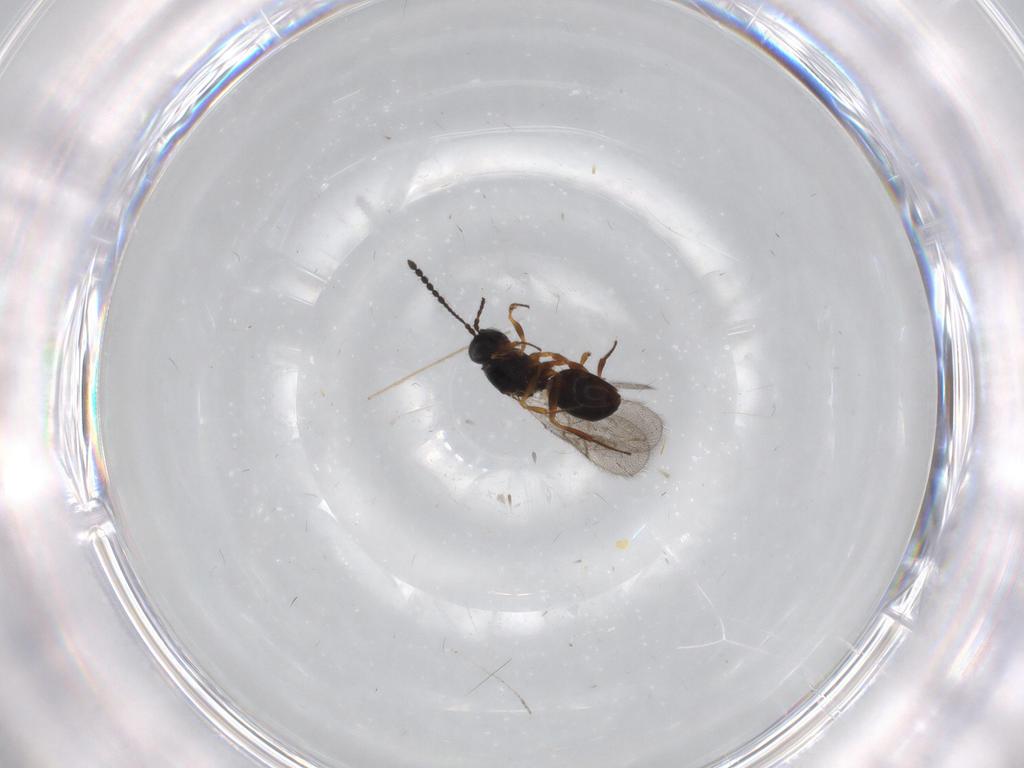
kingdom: Animalia
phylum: Arthropoda
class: Insecta
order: Hymenoptera
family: Figitidae
